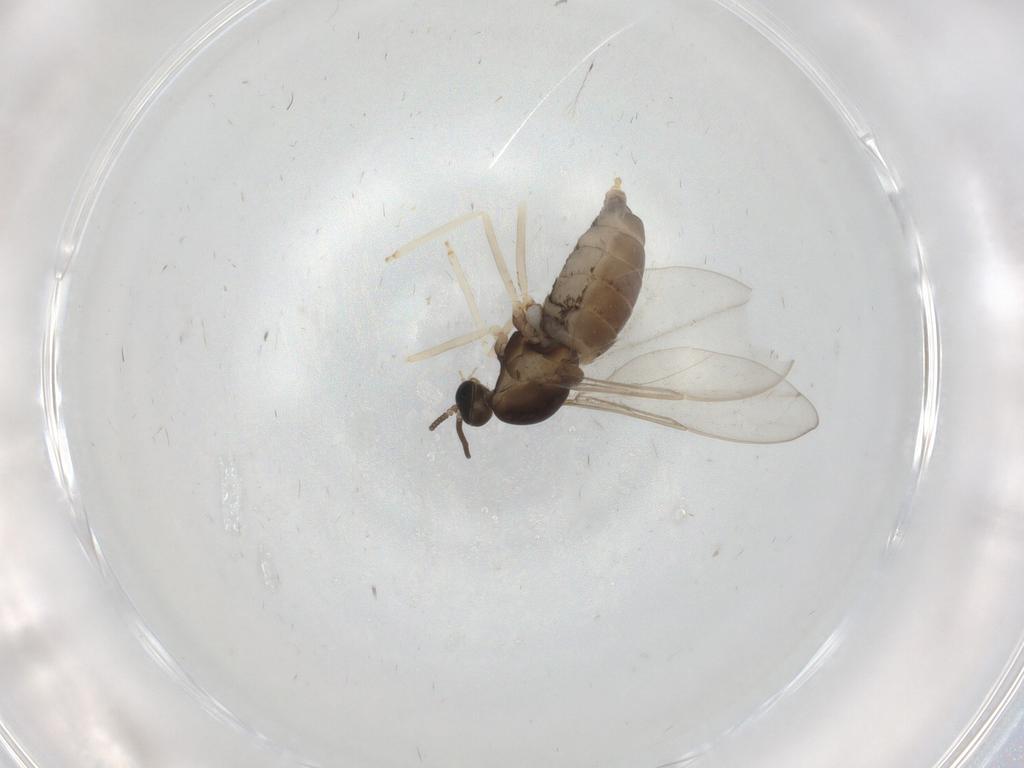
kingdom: Animalia
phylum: Arthropoda
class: Insecta
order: Diptera
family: Cecidomyiidae
